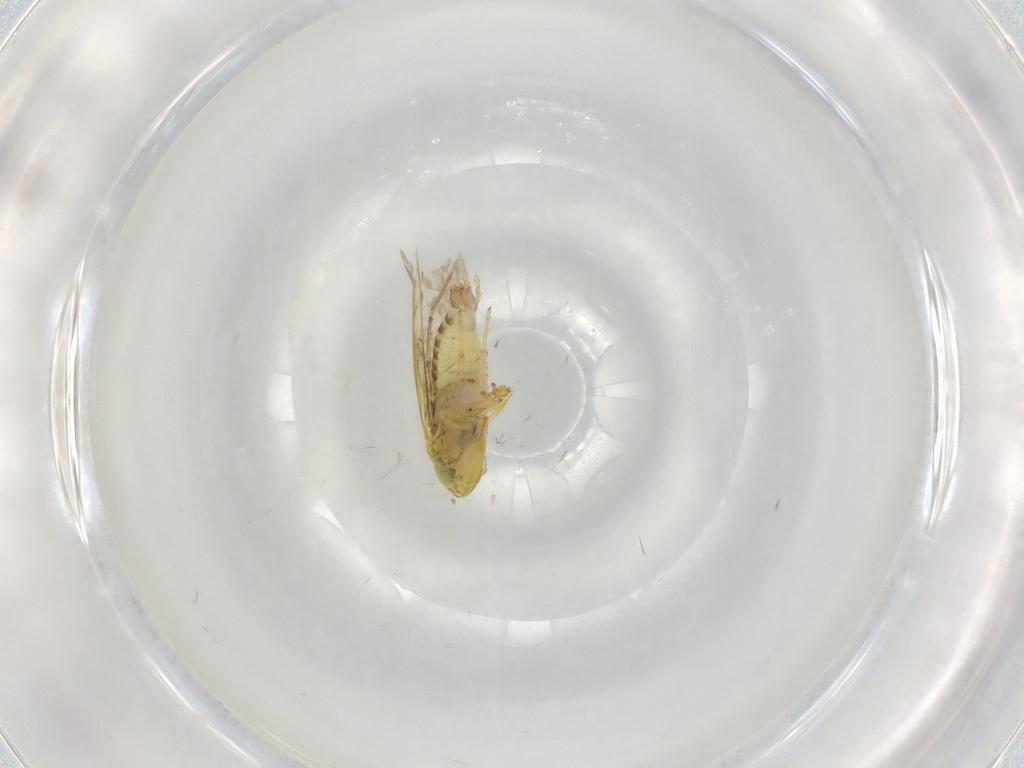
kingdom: Animalia
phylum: Arthropoda
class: Insecta
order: Hemiptera
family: Cicadellidae
